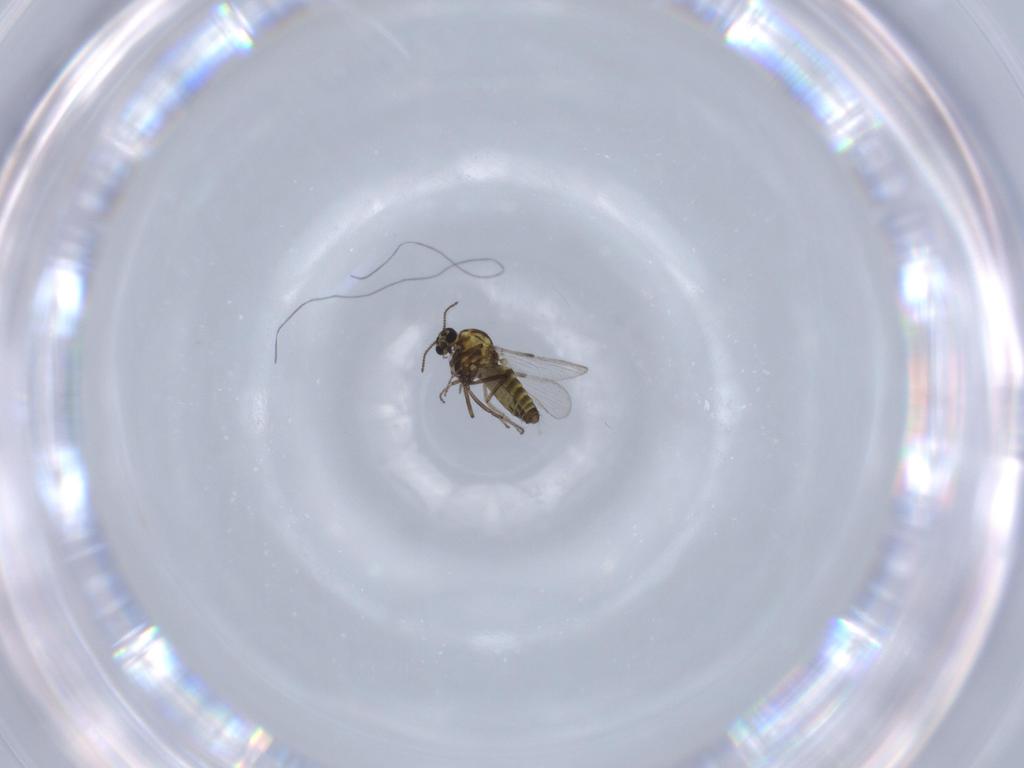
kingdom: Animalia
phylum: Arthropoda
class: Insecta
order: Diptera
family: Ceratopogonidae
